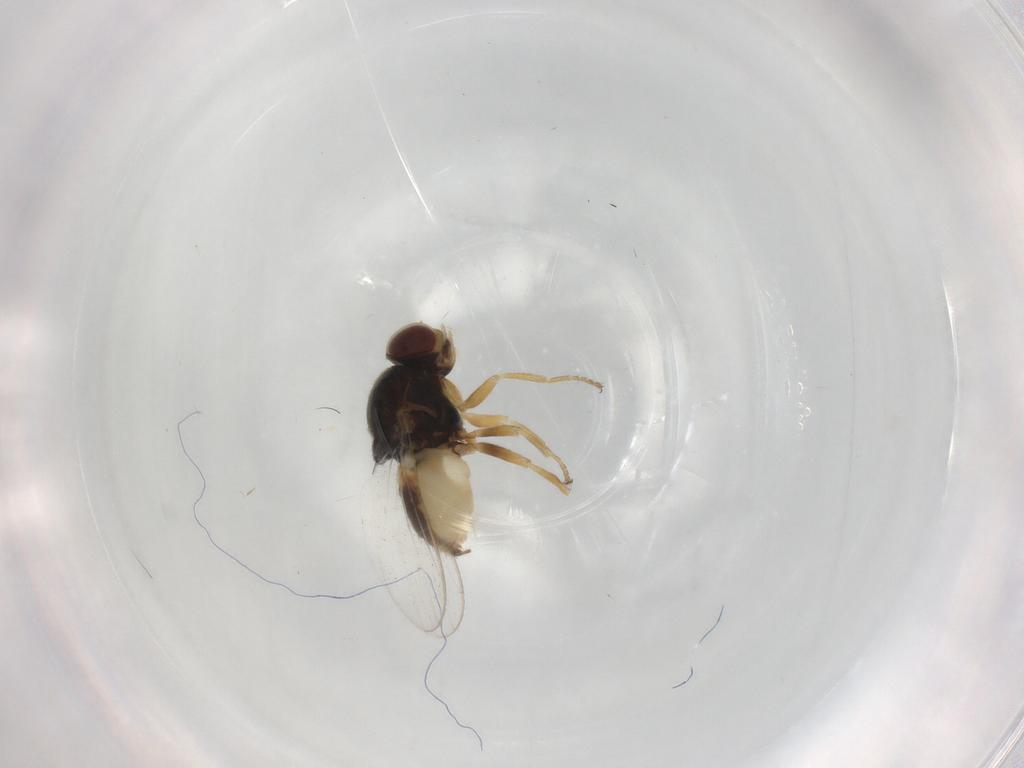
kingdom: Animalia
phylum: Arthropoda
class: Insecta
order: Diptera
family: Chloropidae
